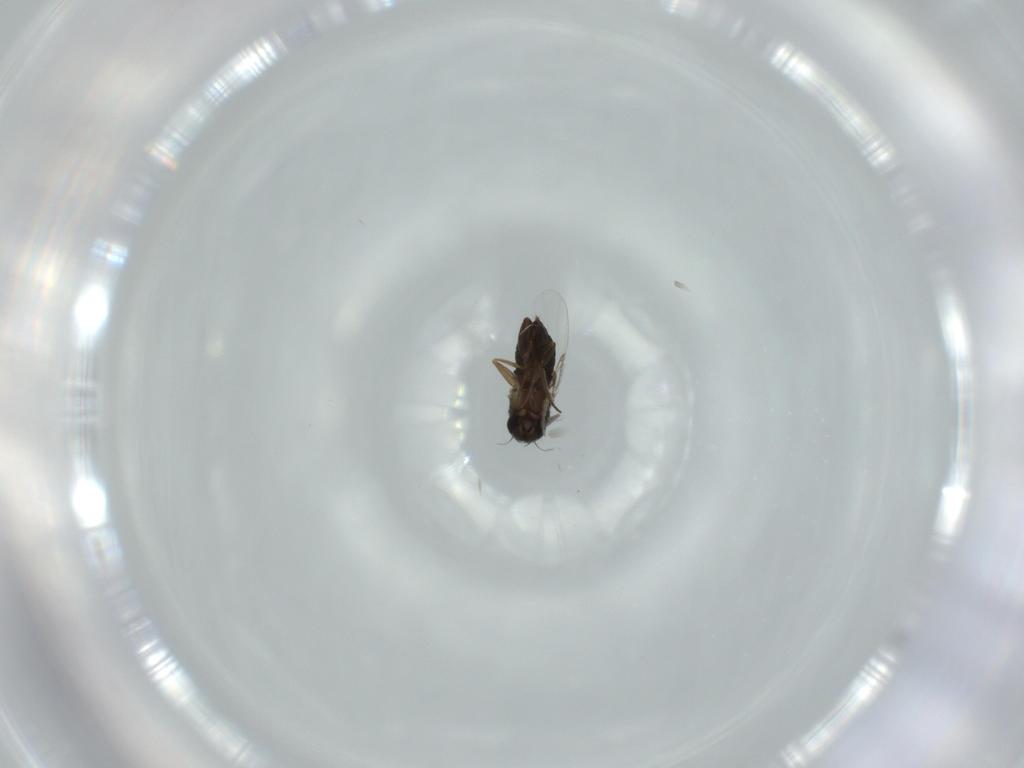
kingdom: Animalia
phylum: Arthropoda
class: Insecta
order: Diptera
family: Phoridae
